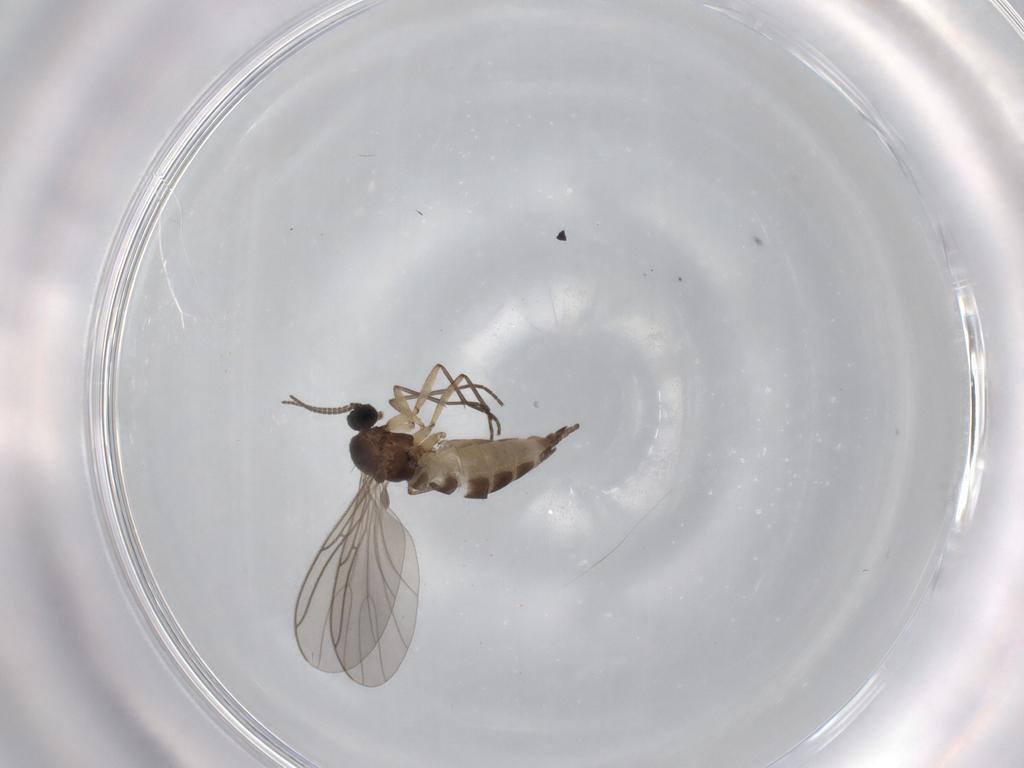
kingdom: Animalia
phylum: Arthropoda
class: Insecta
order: Diptera
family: Sciaridae
